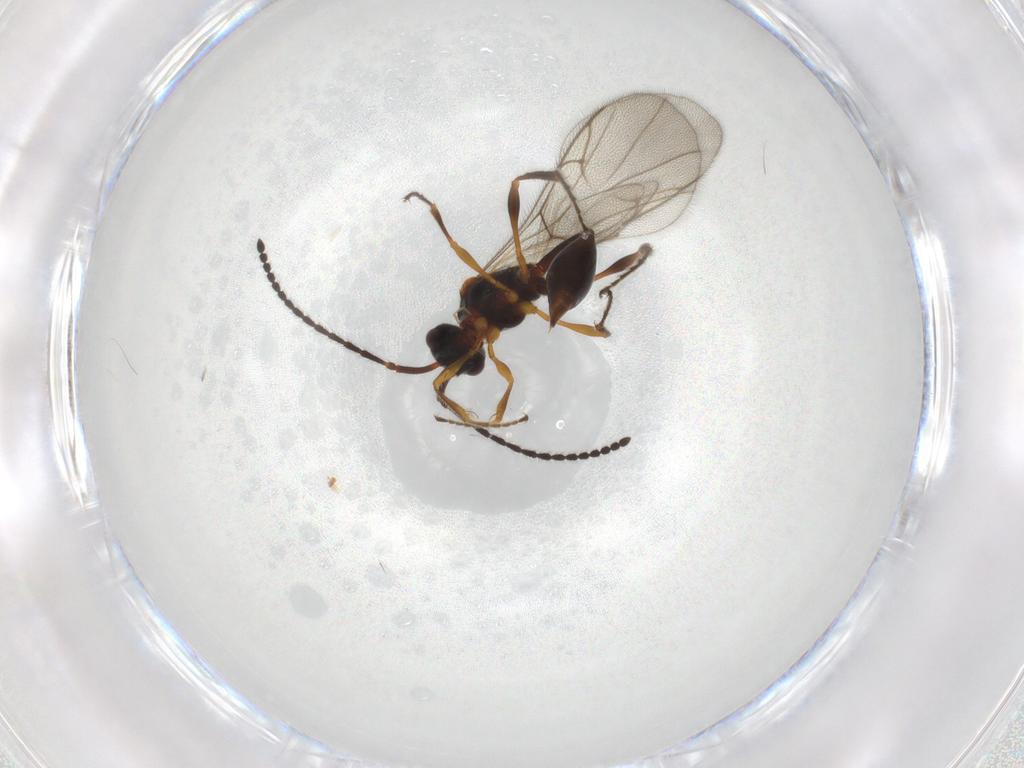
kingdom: Animalia
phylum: Arthropoda
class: Insecta
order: Hymenoptera
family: Diapriidae
